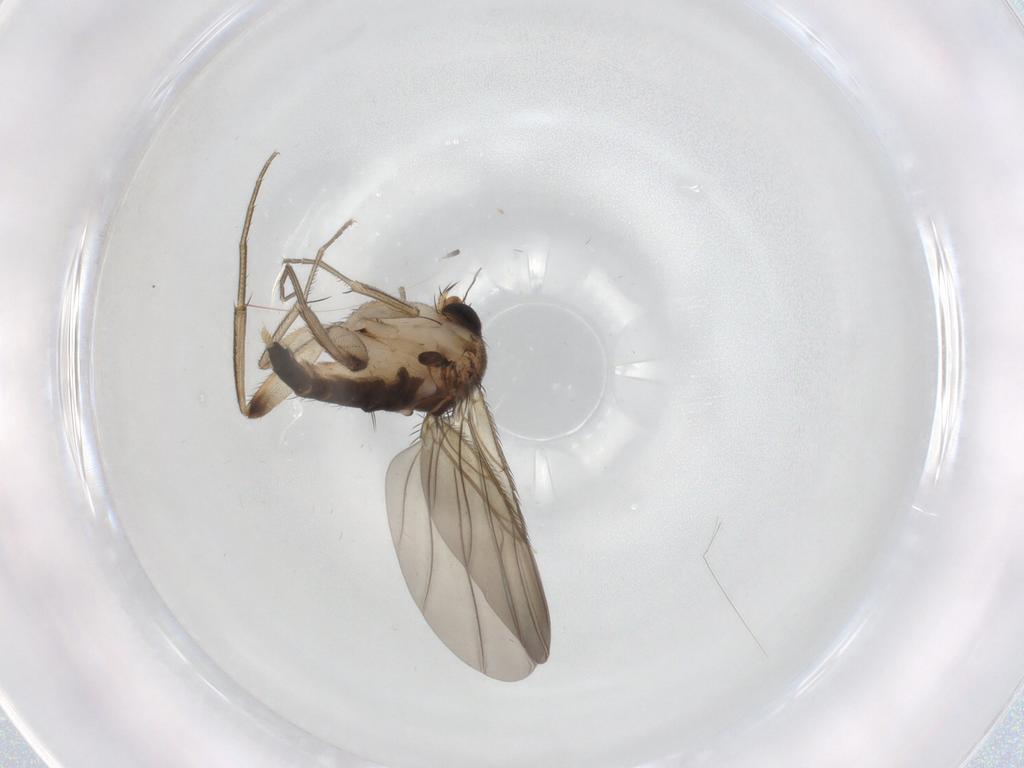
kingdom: Animalia
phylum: Arthropoda
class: Insecta
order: Diptera
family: Phoridae
